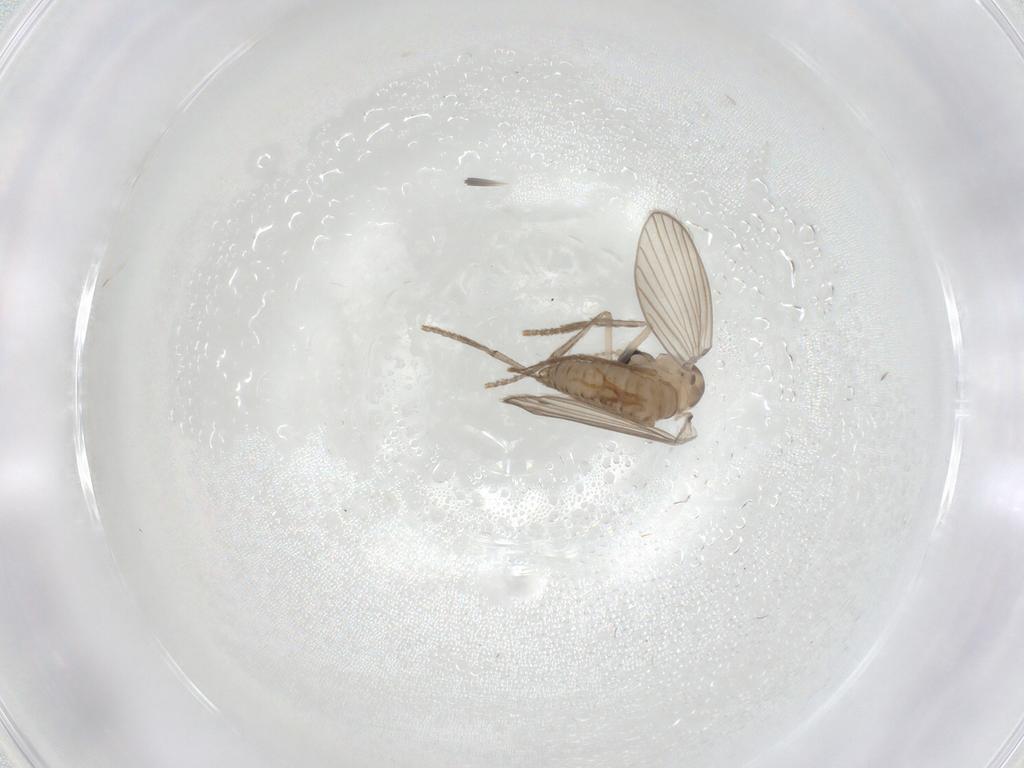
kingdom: Animalia
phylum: Arthropoda
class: Insecta
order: Diptera
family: Psychodidae
